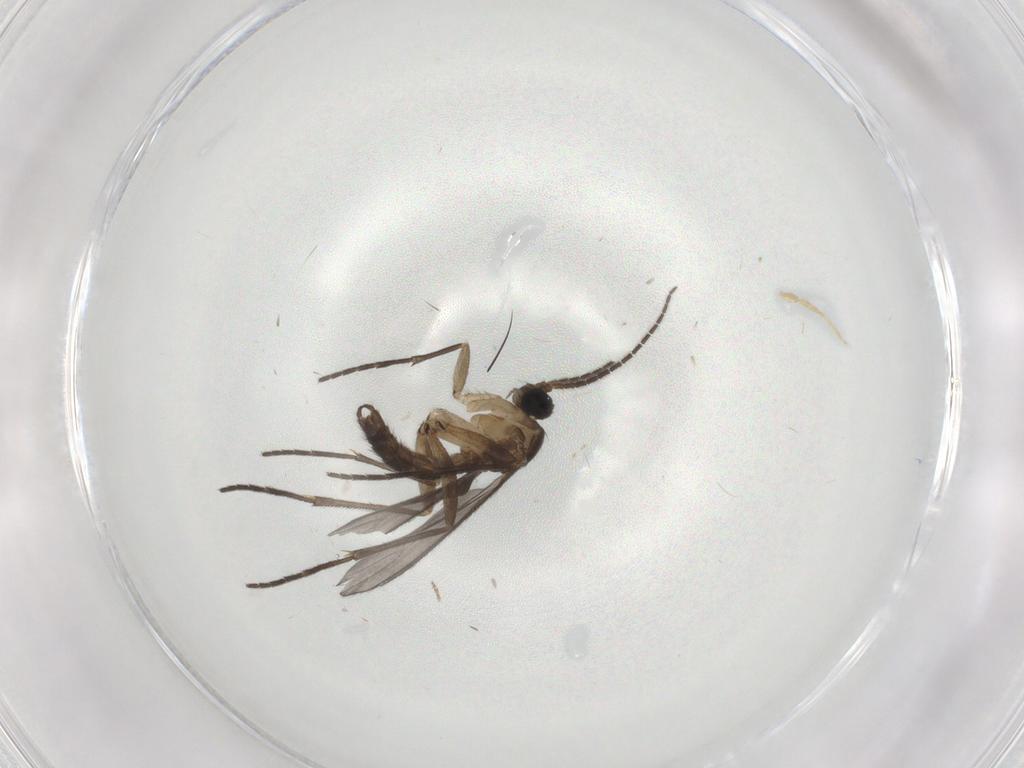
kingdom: Animalia
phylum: Arthropoda
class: Insecta
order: Diptera
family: Sciaridae
